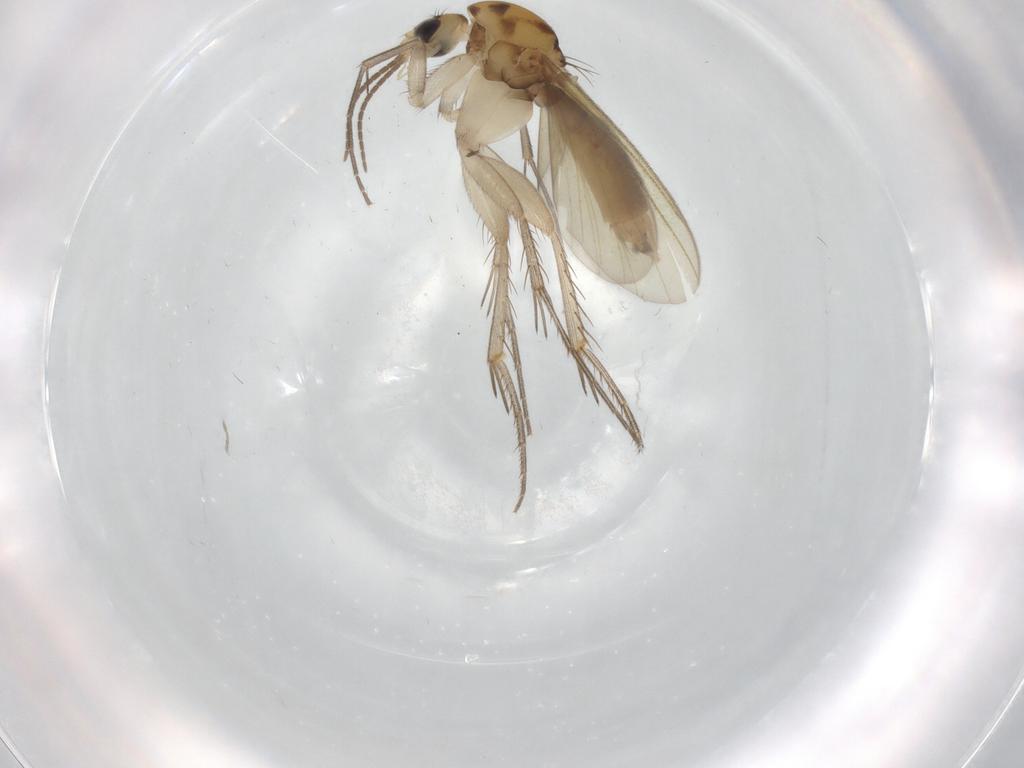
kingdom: Animalia
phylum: Arthropoda
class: Insecta
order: Diptera
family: Mycetophilidae
